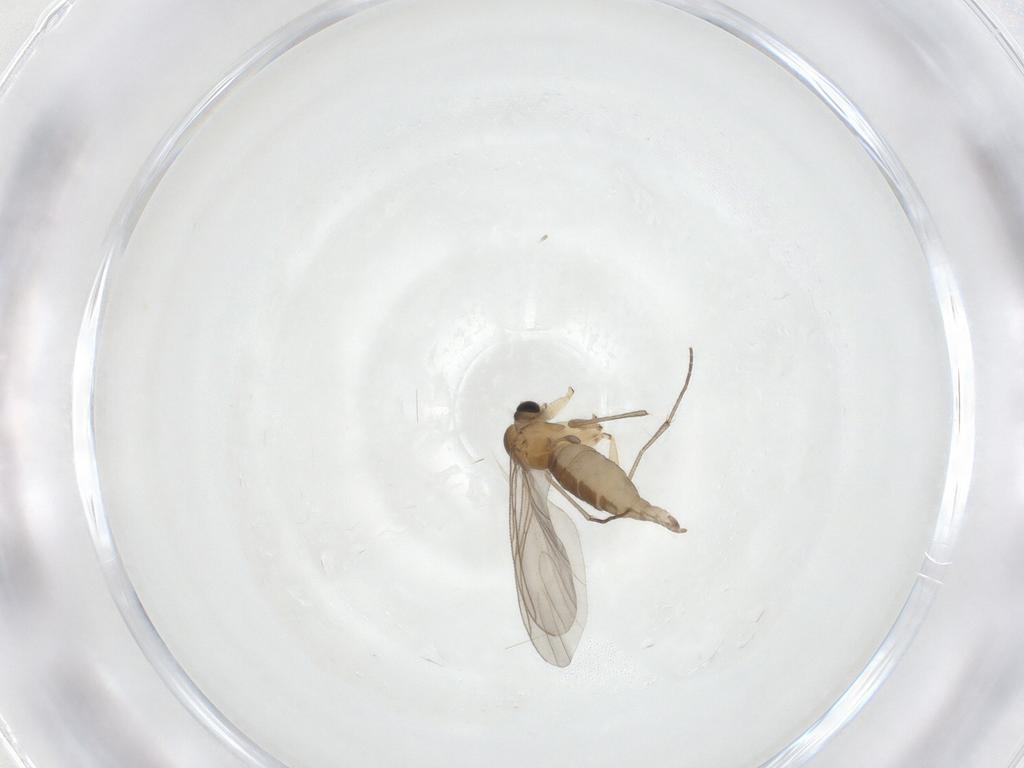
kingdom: Animalia
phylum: Arthropoda
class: Insecta
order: Diptera
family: Sciaridae
